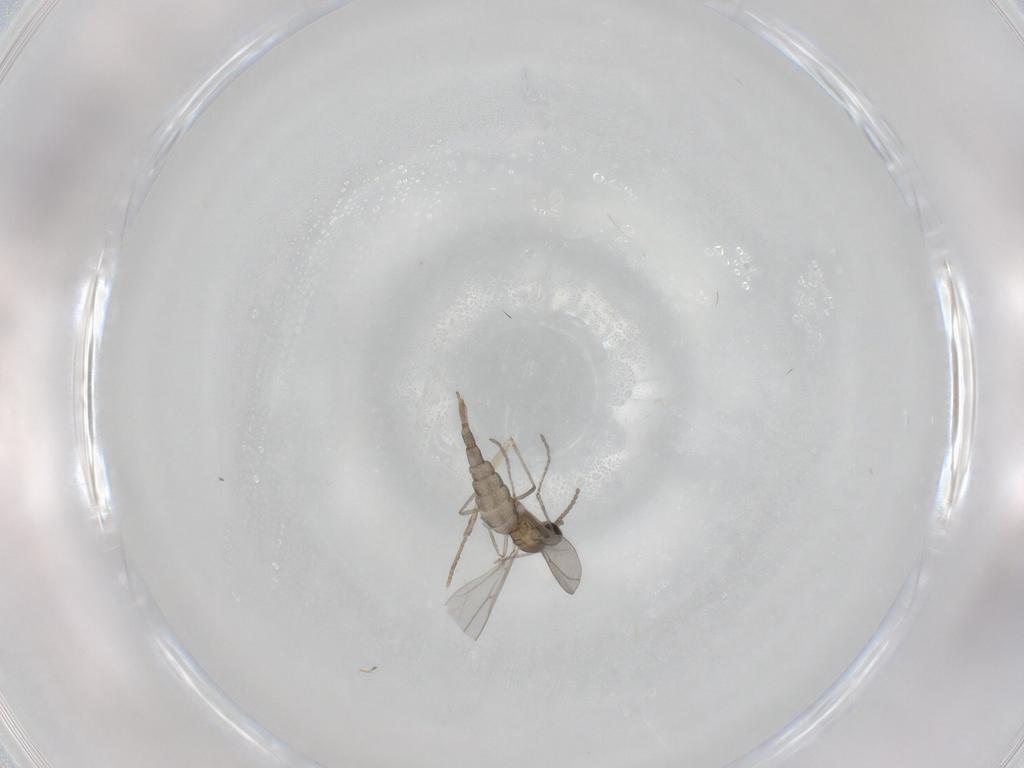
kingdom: Animalia
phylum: Arthropoda
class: Insecta
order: Diptera
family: Cecidomyiidae
